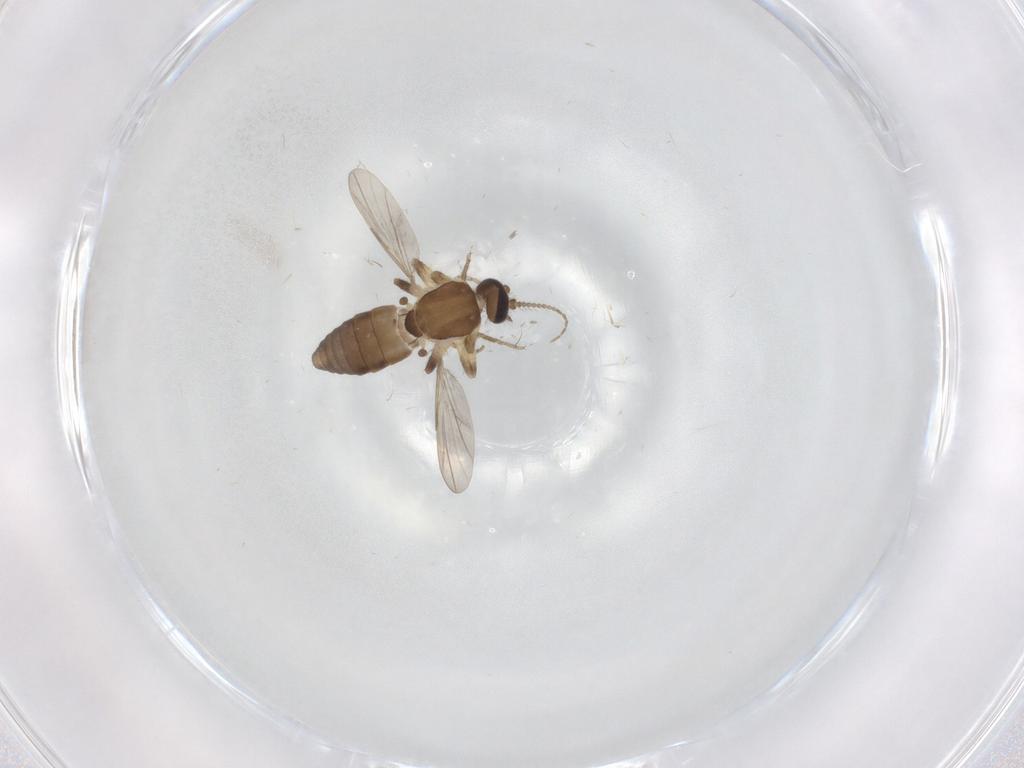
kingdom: Animalia
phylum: Arthropoda
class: Insecta
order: Diptera
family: Ceratopogonidae
